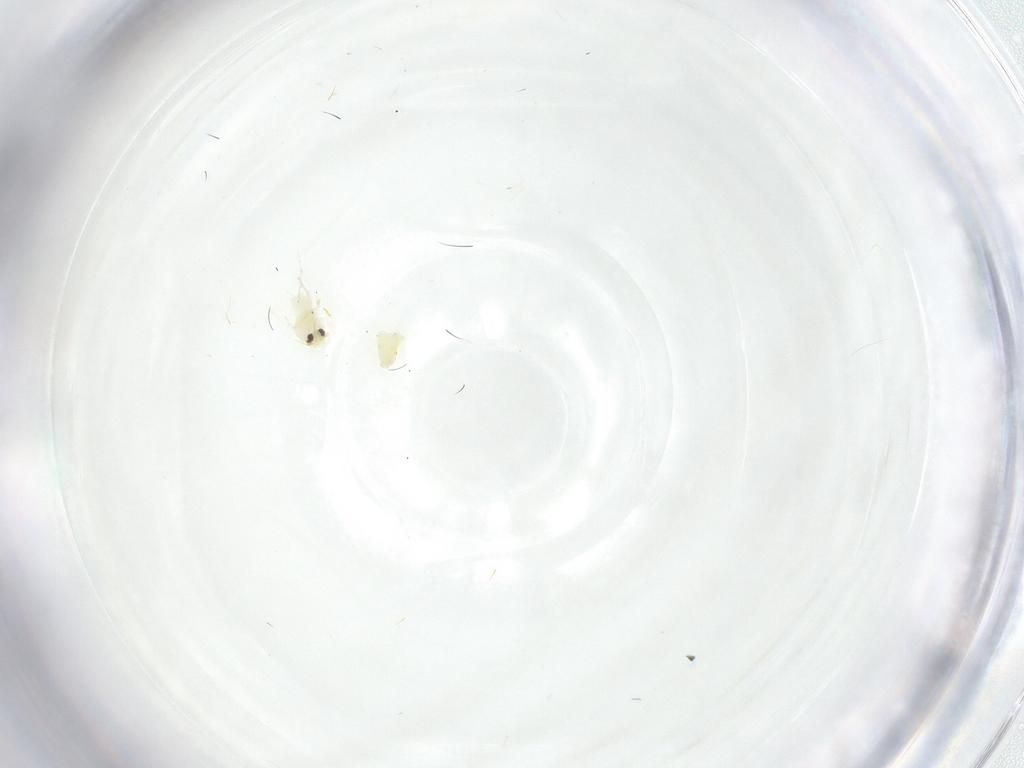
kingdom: Animalia
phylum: Arthropoda
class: Insecta
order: Hemiptera
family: Aleyrodidae
